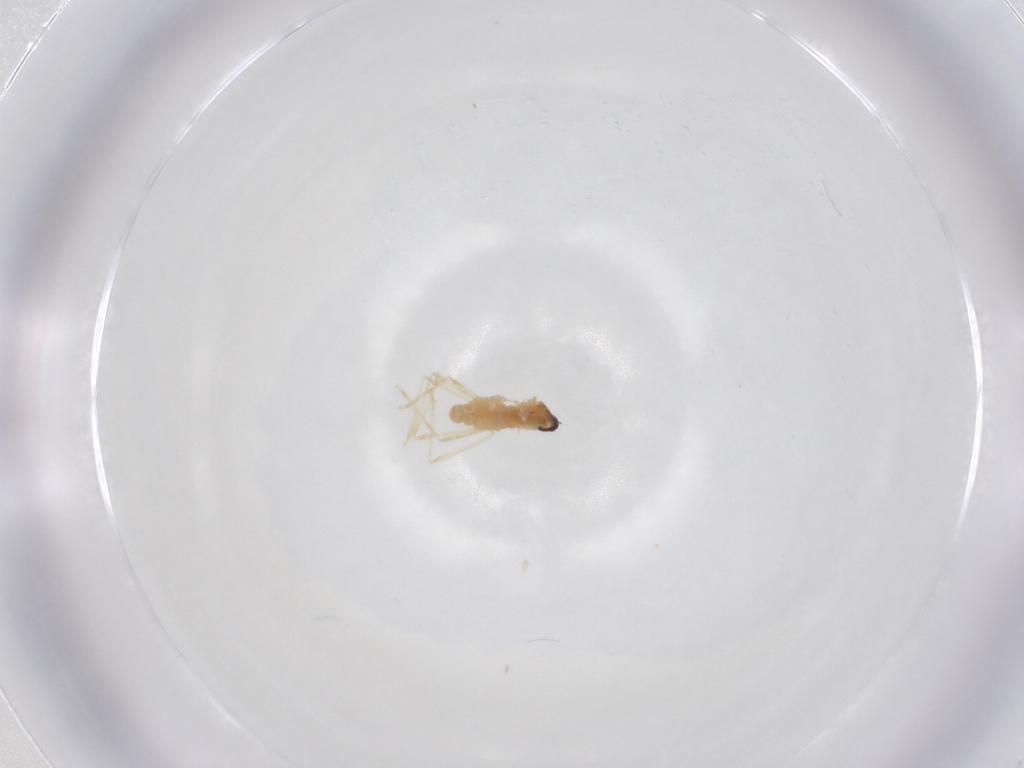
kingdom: Animalia
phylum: Arthropoda
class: Insecta
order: Diptera
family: Cecidomyiidae
